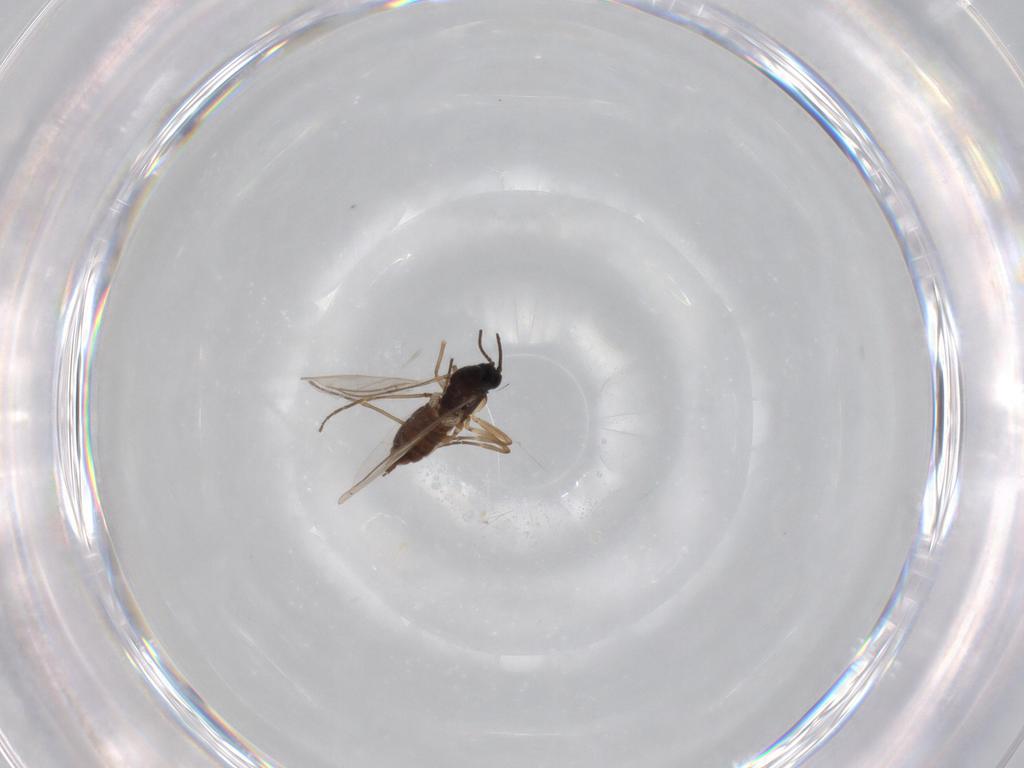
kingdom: Animalia
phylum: Arthropoda
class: Insecta
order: Diptera
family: Sciaridae
